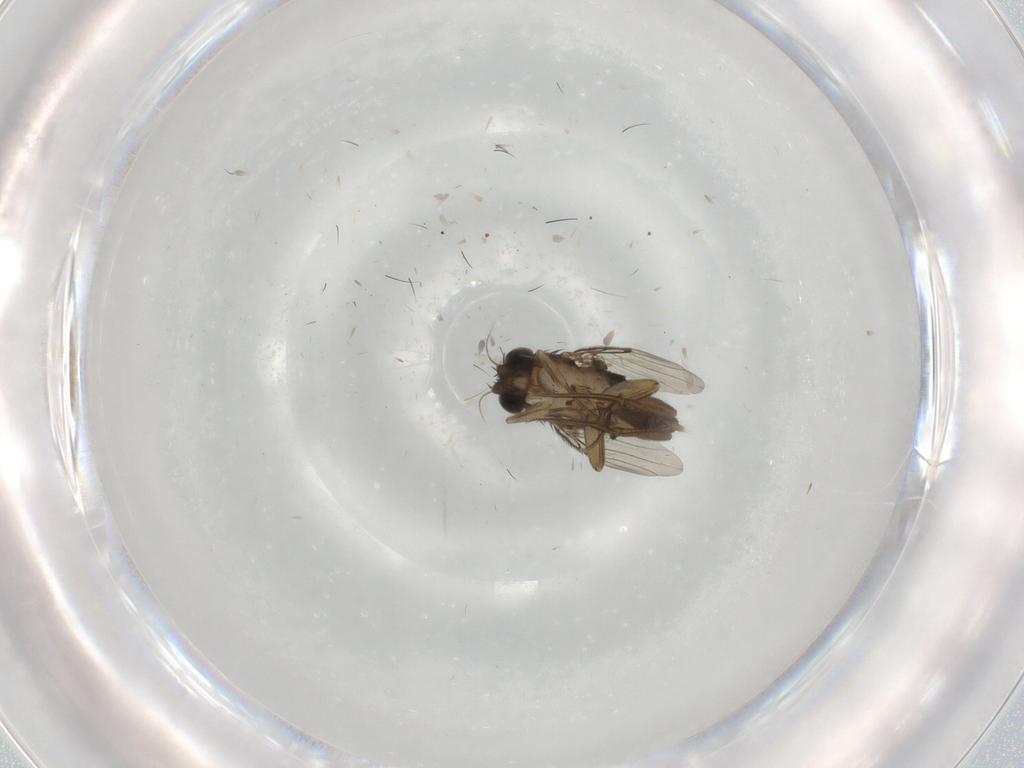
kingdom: Animalia
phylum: Arthropoda
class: Insecta
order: Diptera
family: Phoridae
